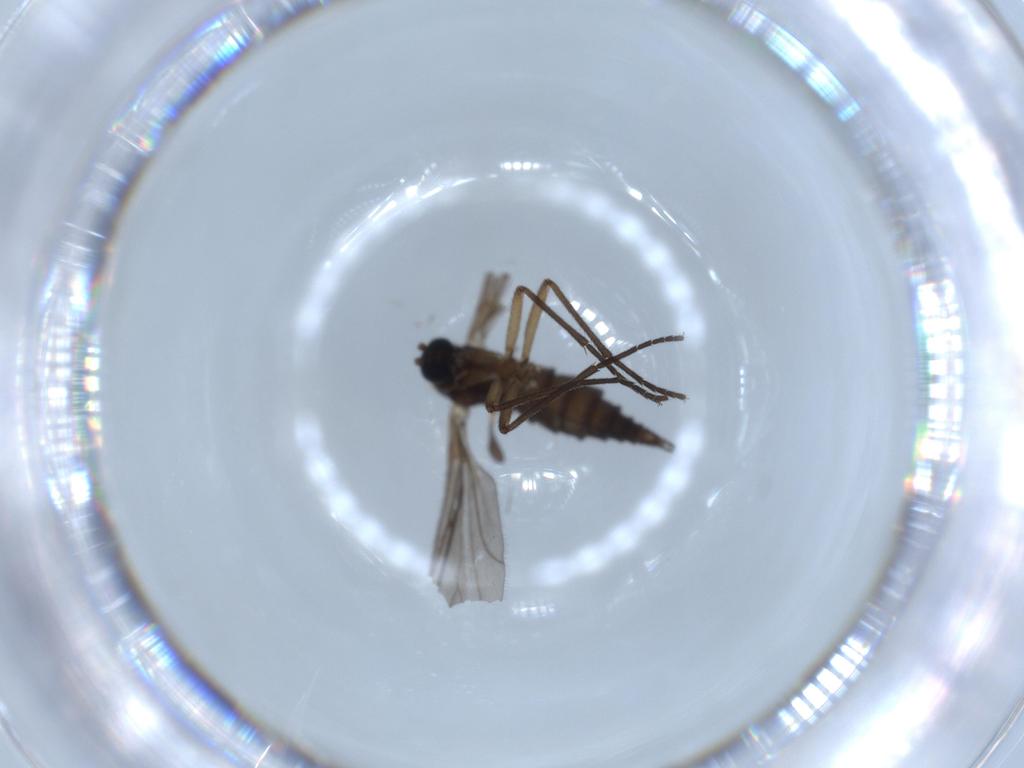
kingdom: Animalia
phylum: Arthropoda
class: Insecta
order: Diptera
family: Sciaridae
